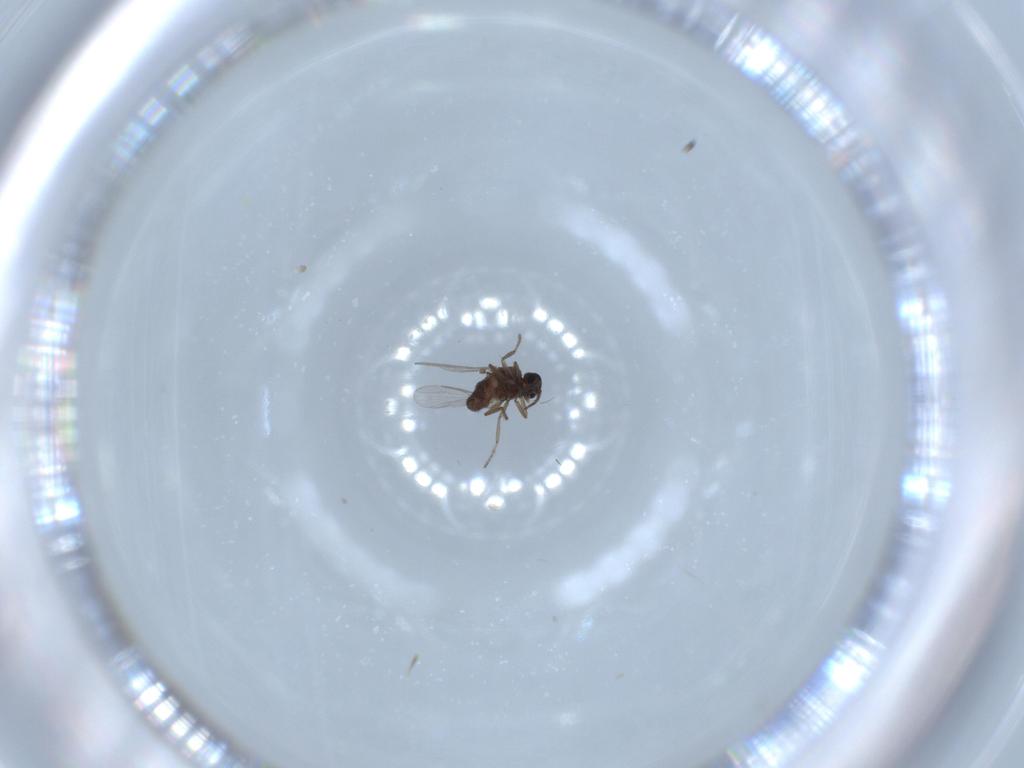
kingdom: Animalia
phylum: Arthropoda
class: Insecta
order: Diptera
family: Ceratopogonidae
